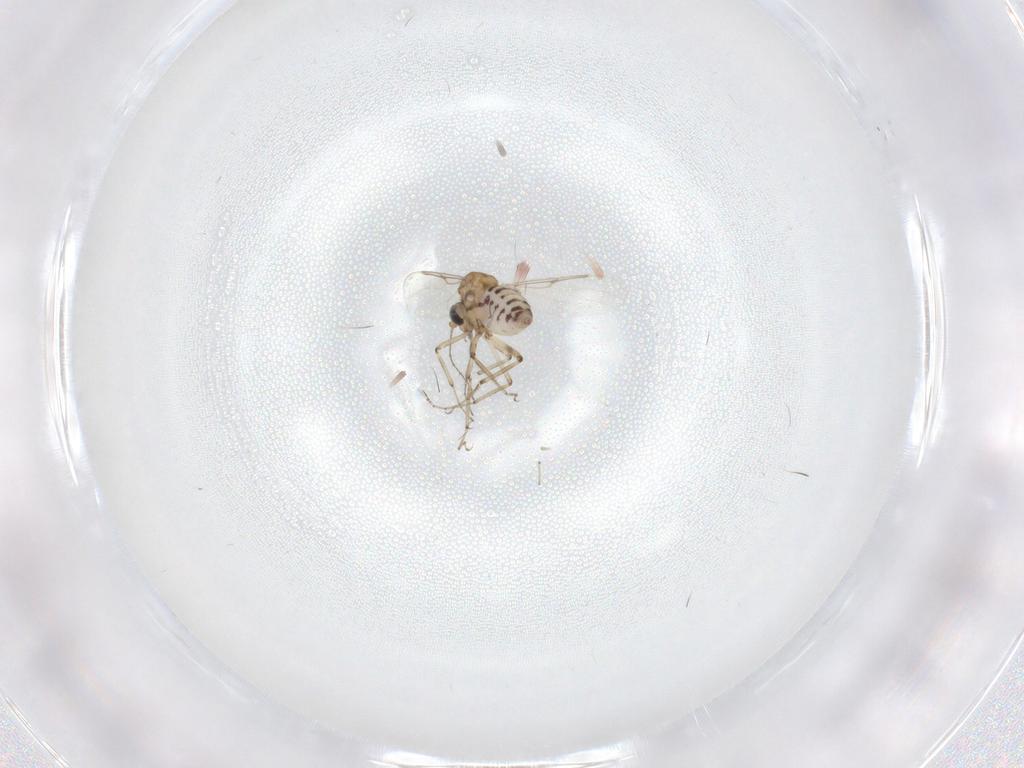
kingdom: Animalia
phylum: Arthropoda
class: Insecta
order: Diptera
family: Ceratopogonidae
